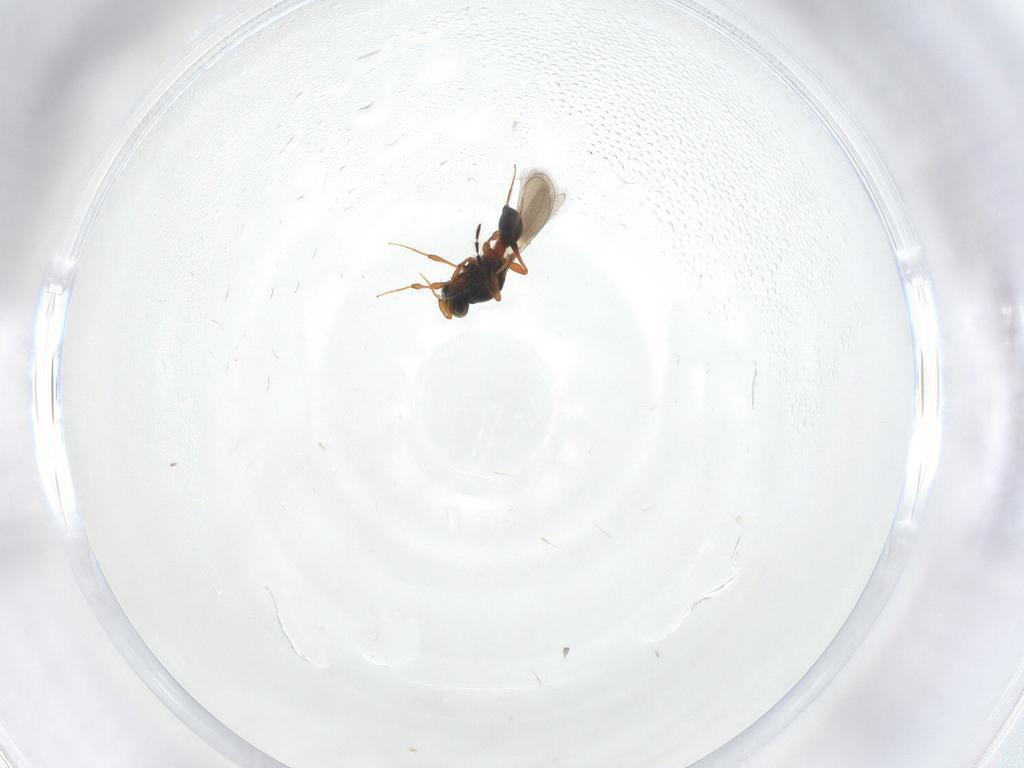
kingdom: Animalia
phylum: Arthropoda
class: Insecta
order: Hymenoptera
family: Platygastridae
